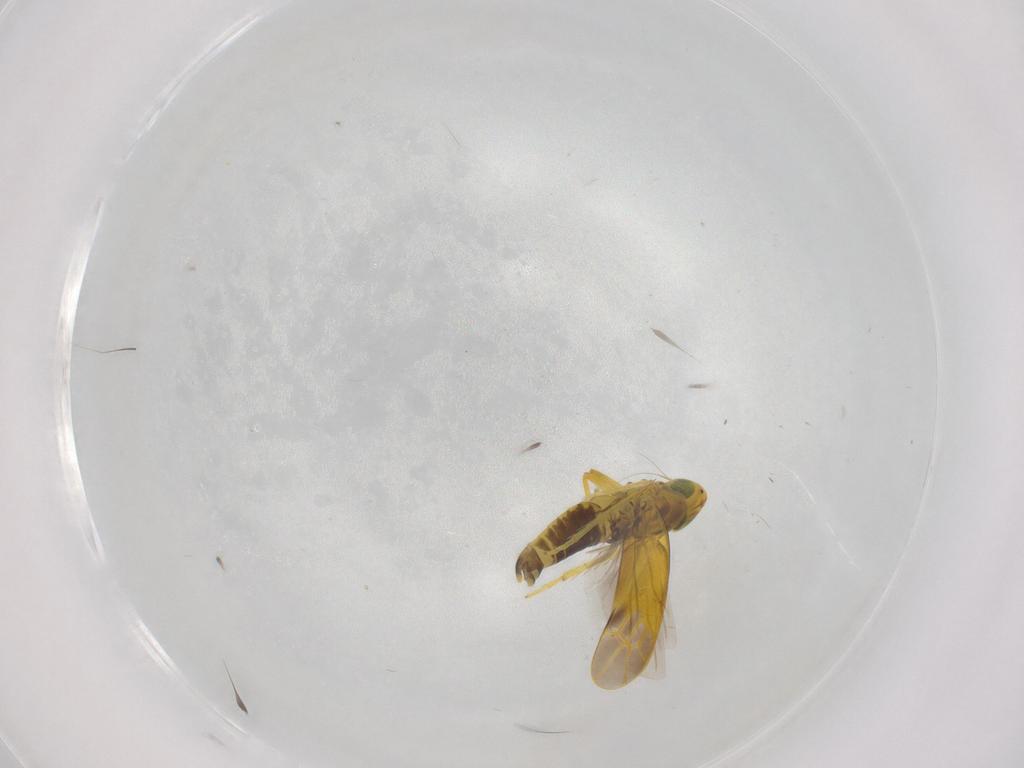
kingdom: Animalia
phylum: Arthropoda
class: Insecta
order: Hemiptera
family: Cicadellidae
